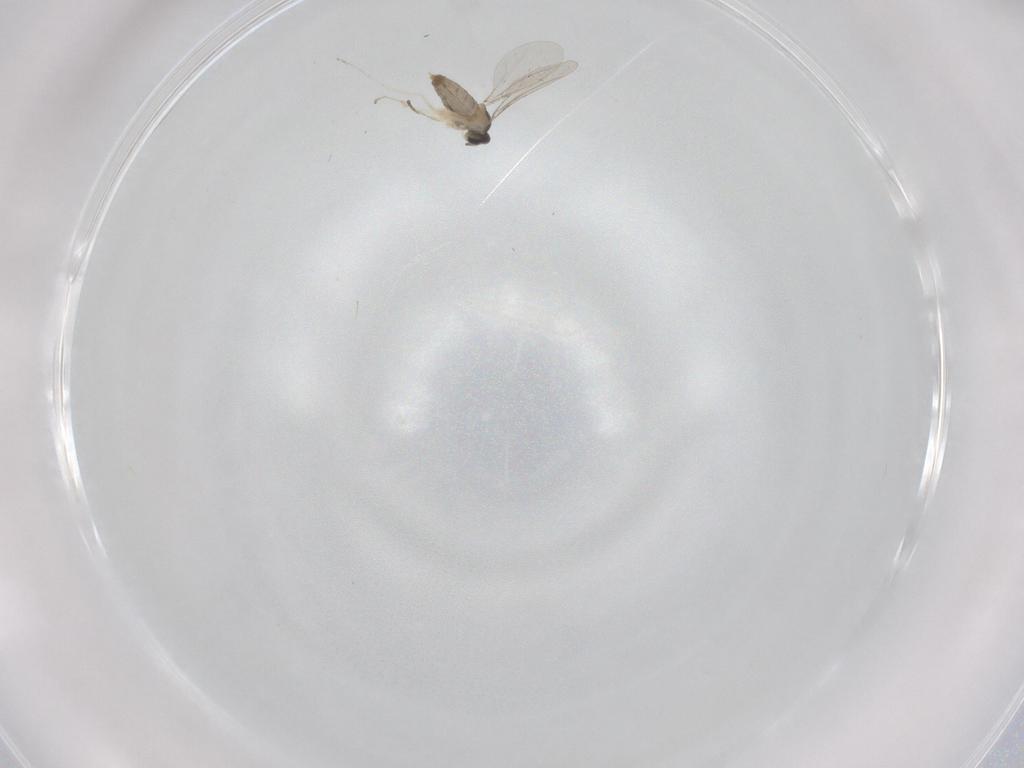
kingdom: Animalia
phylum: Arthropoda
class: Insecta
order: Diptera
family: Cecidomyiidae
